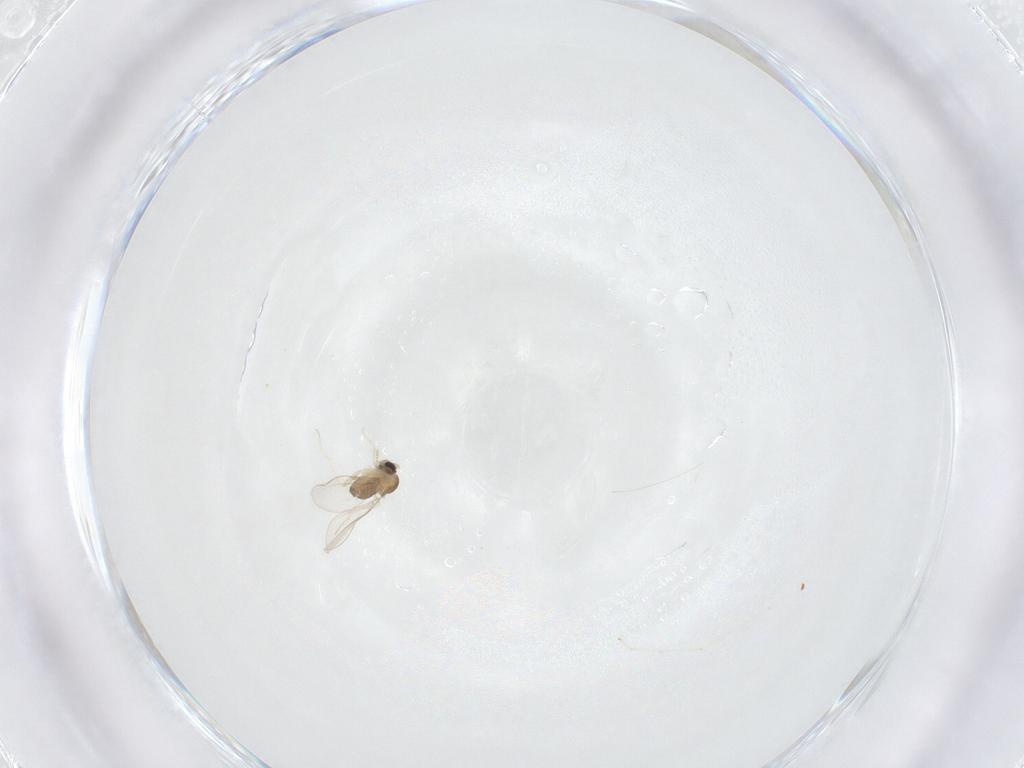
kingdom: Animalia
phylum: Arthropoda
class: Insecta
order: Diptera
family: Cecidomyiidae
